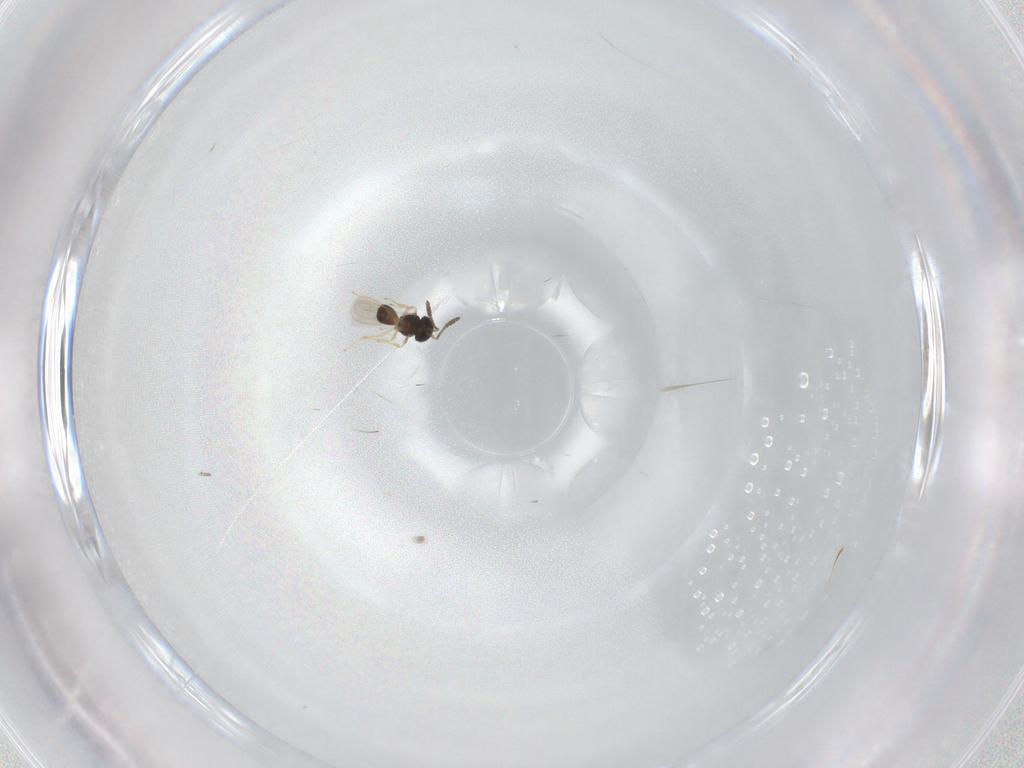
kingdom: Animalia
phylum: Arthropoda
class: Insecta
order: Hymenoptera
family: Scelionidae
